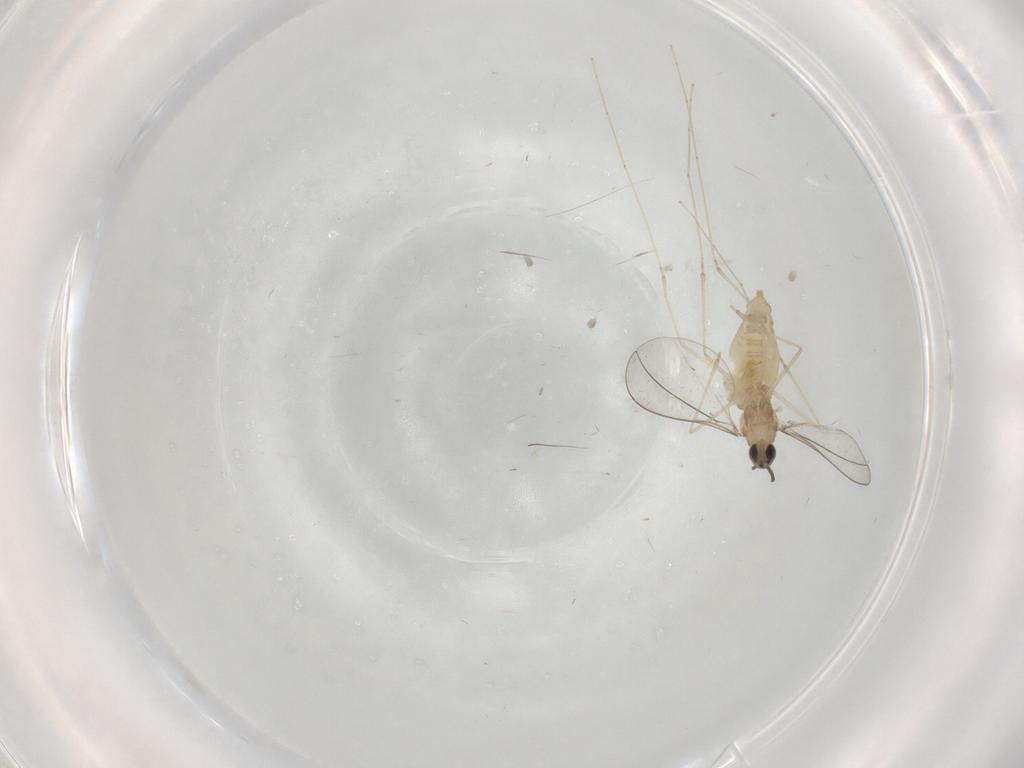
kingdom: Animalia
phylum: Arthropoda
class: Insecta
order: Diptera
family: Cecidomyiidae
